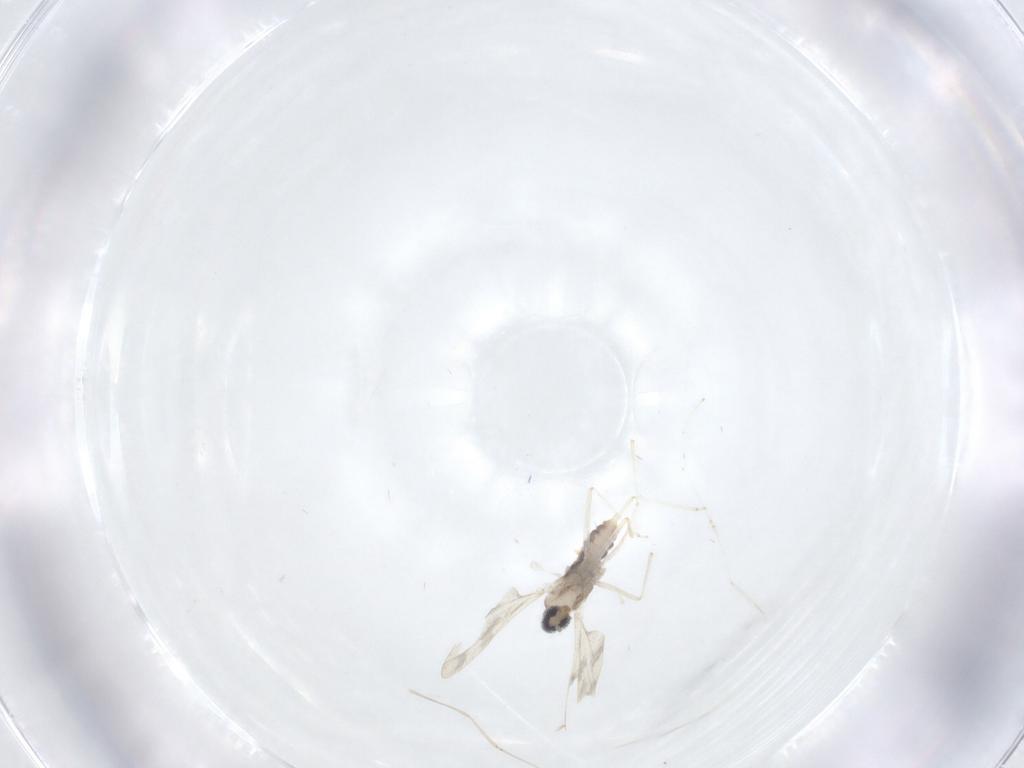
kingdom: Animalia
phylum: Arthropoda
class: Insecta
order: Diptera
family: Cecidomyiidae
